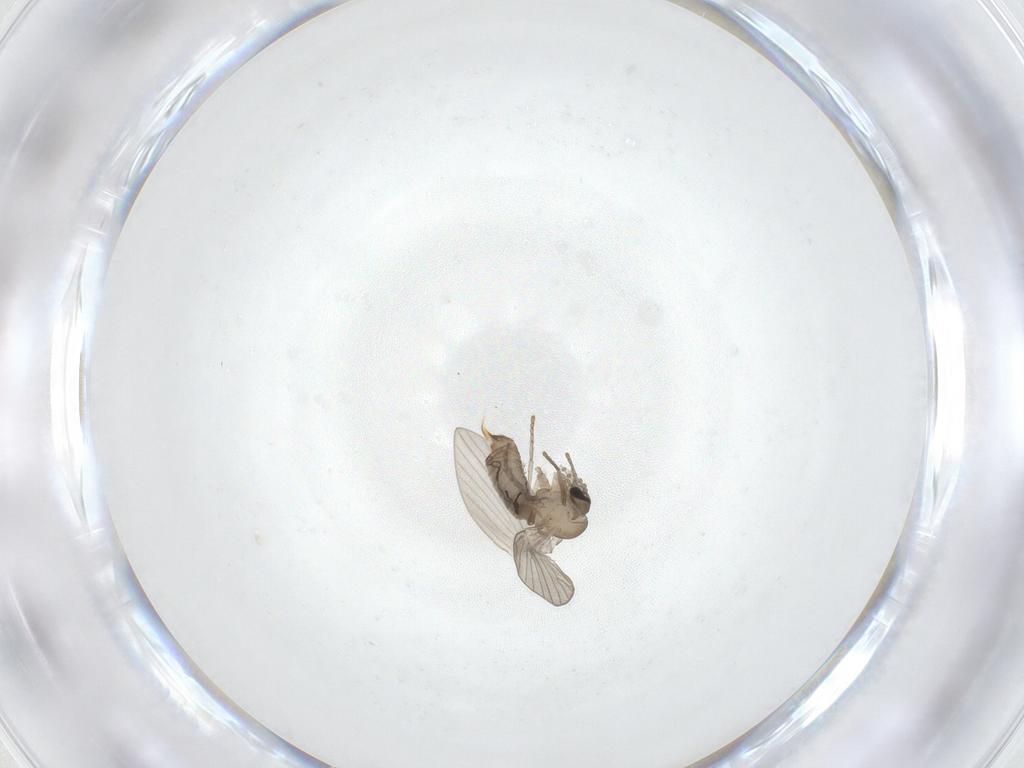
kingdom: Animalia
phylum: Arthropoda
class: Insecta
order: Diptera
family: Psychodidae
